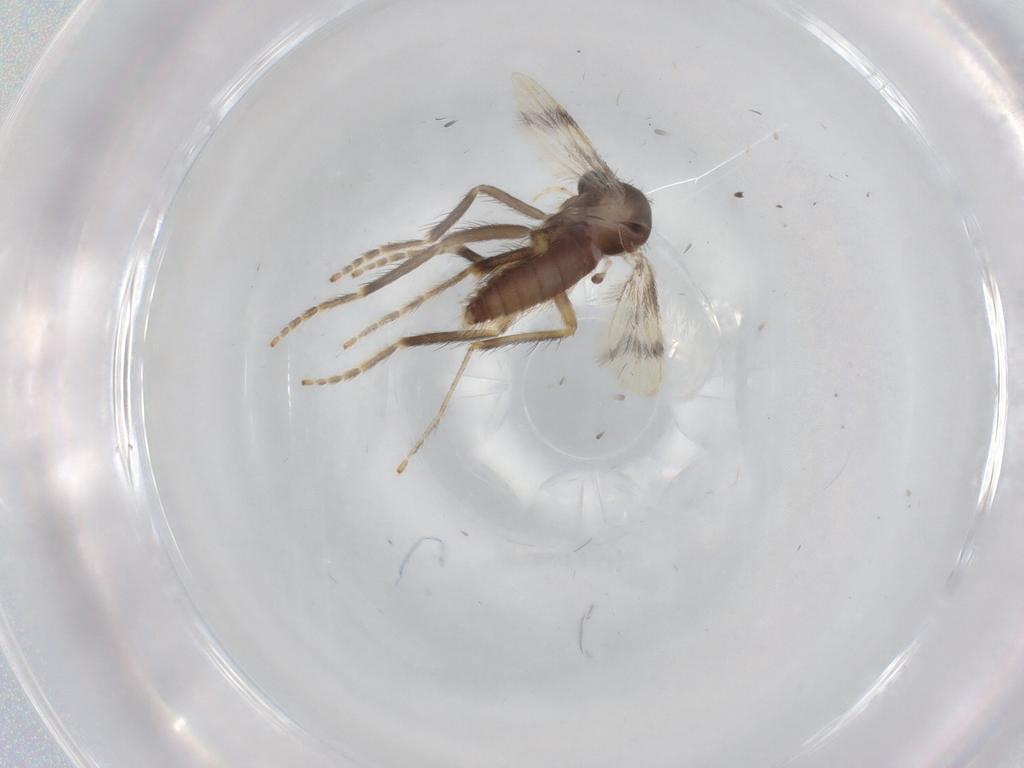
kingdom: Animalia
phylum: Arthropoda
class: Insecta
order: Diptera
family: Corethrellidae
